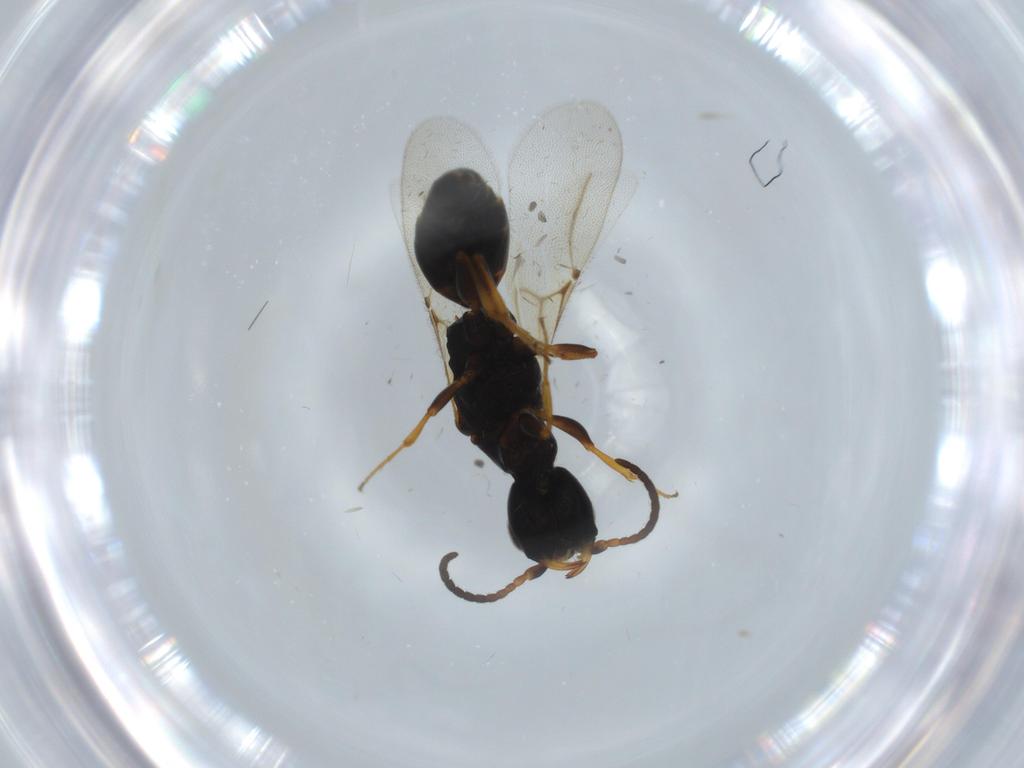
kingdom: Animalia
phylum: Arthropoda
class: Insecta
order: Hymenoptera
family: Bethylidae
